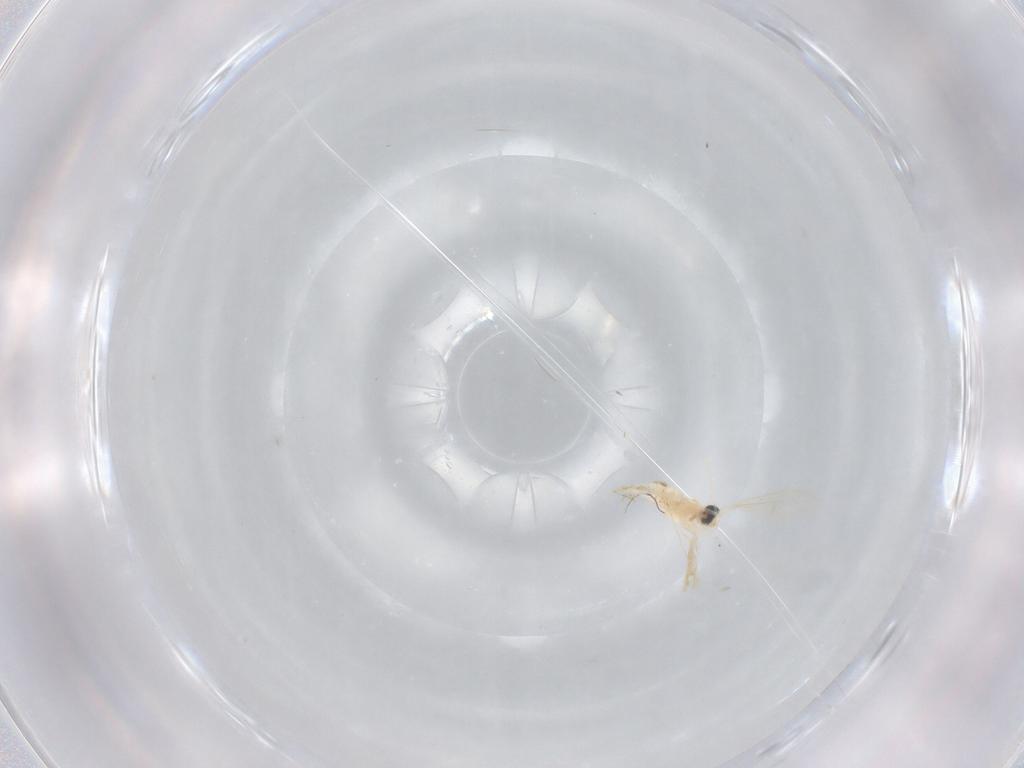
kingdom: Animalia
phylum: Arthropoda
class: Insecta
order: Diptera
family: Cecidomyiidae
